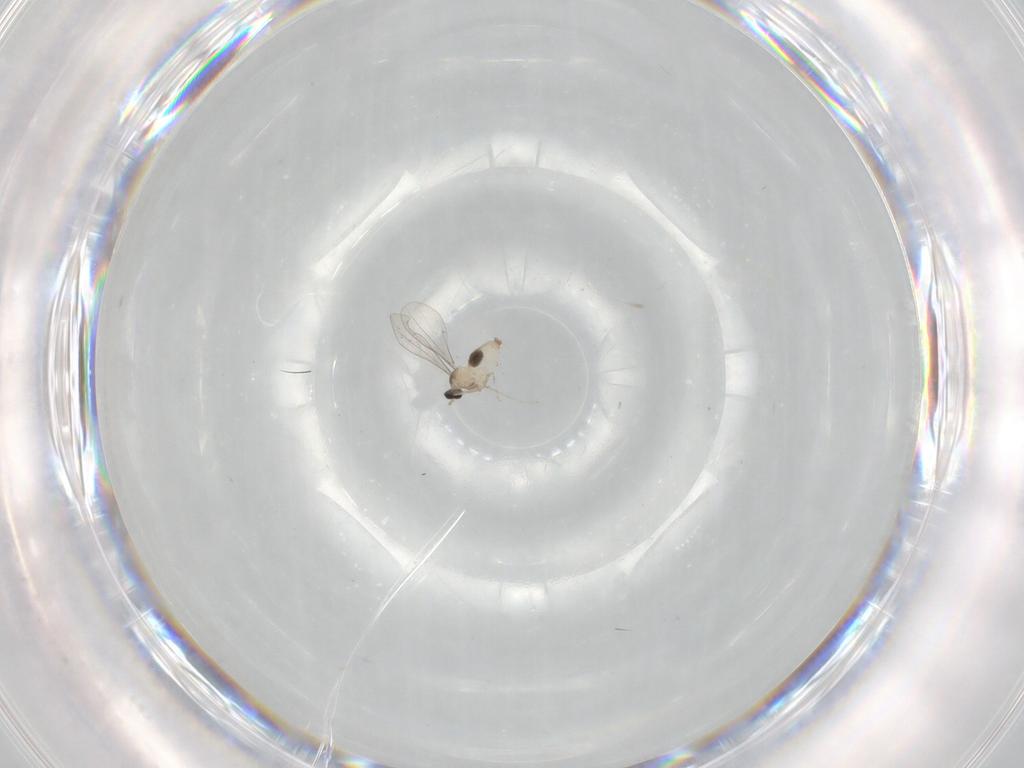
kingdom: Animalia
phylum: Arthropoda
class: Insecta
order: Diptera
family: Cecidomyiidae
